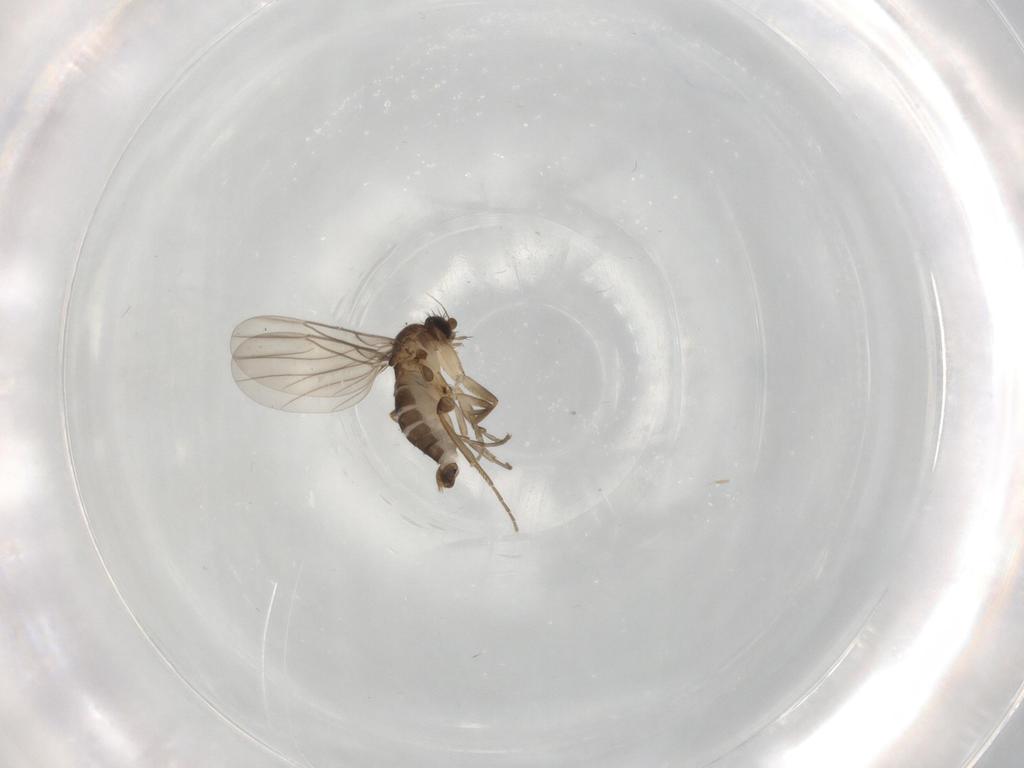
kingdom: Animalia
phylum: Arthropoda
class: Insecta
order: Diptera
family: Phoridae
